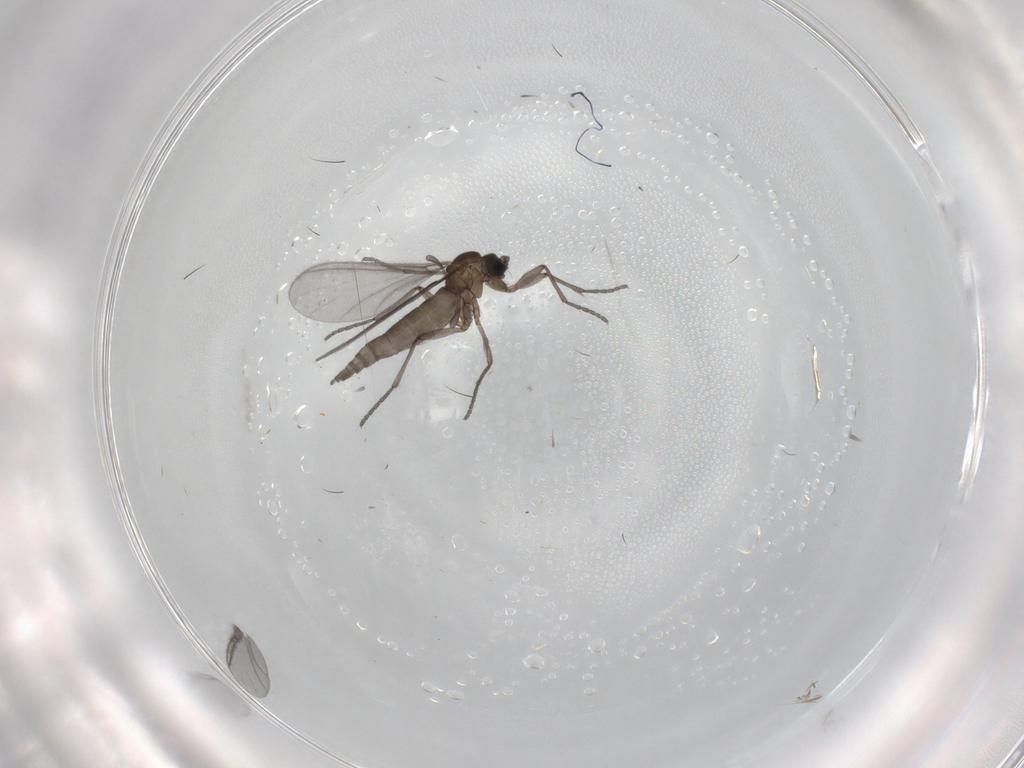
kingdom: Animalia
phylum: Arthropoda
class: Insecta
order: Diptera
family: Sciaridae
